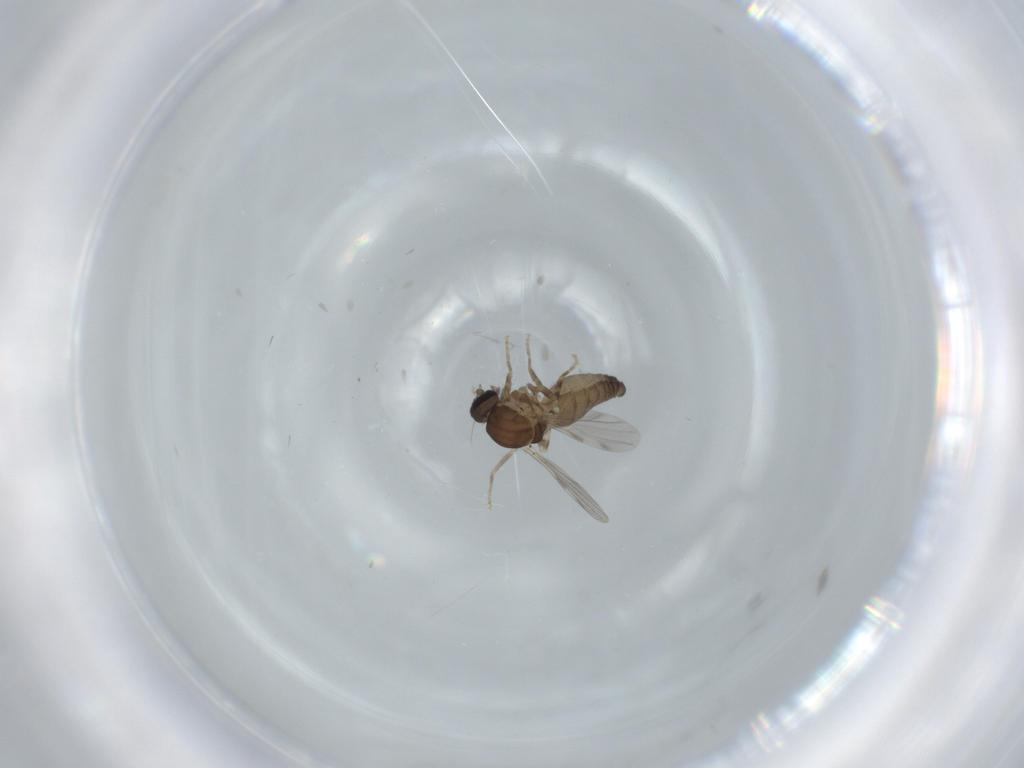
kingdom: Animalia
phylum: Arthropoda
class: Insecta
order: Diptera
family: Ceratopogonidae
